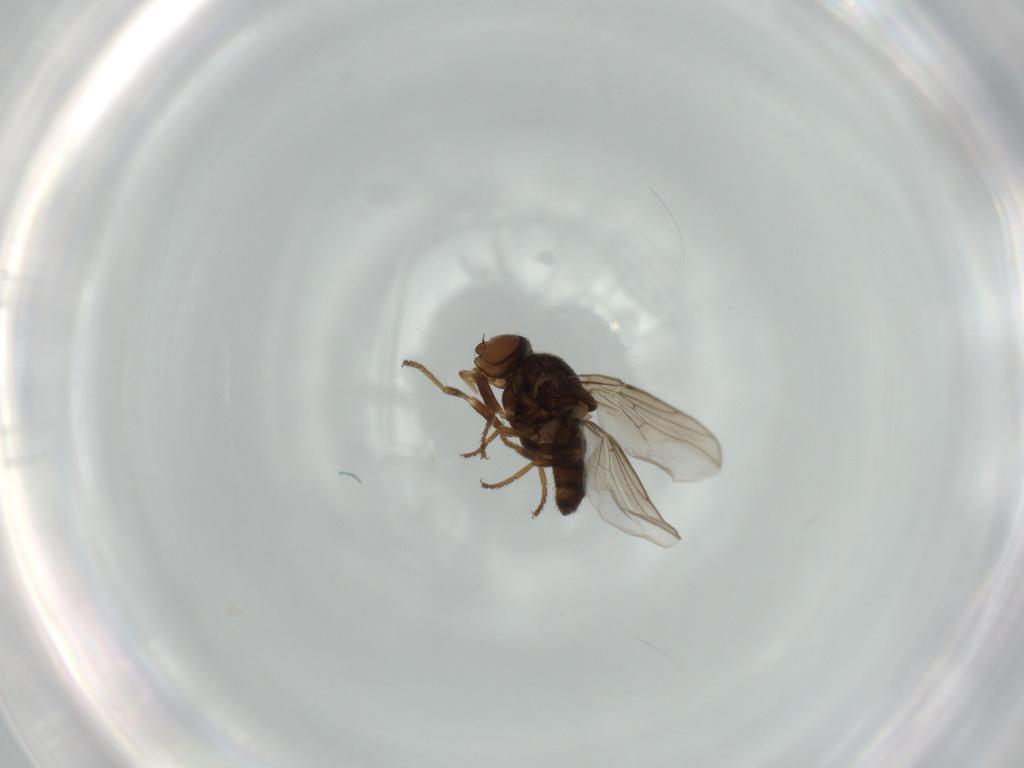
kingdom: Animalia
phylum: Arthropoda
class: Insecta
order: Diptera
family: Chloropidae
